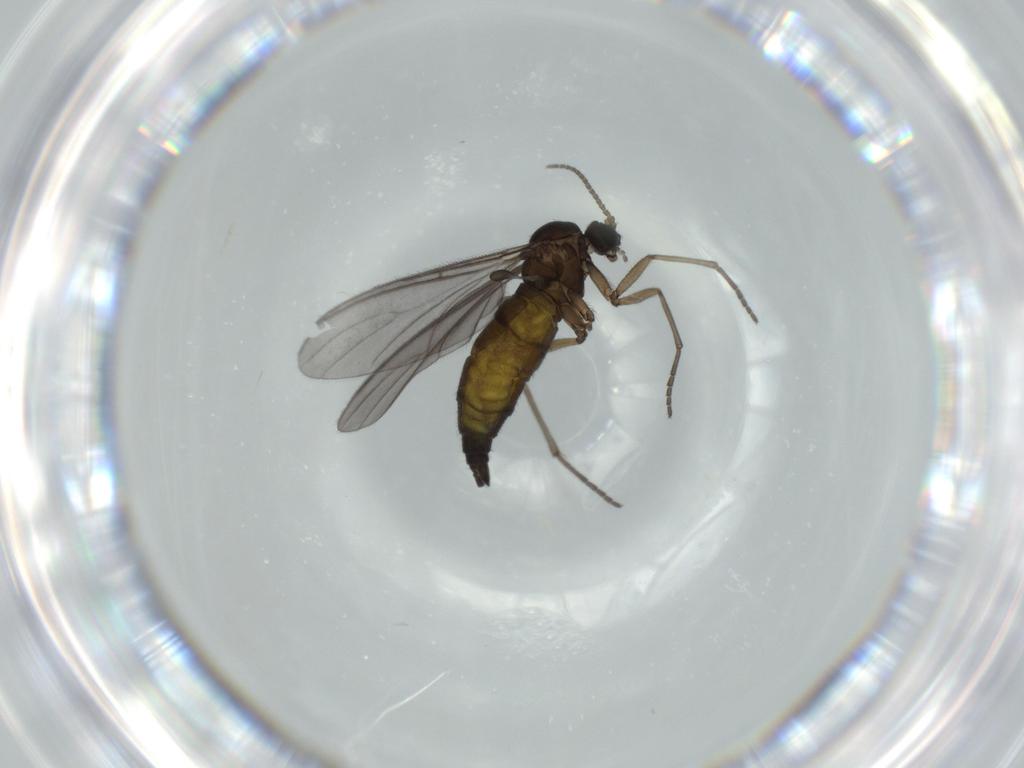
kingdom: Animalia
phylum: Arthropoda
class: Insecta
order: Diptera
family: Sciaridae
